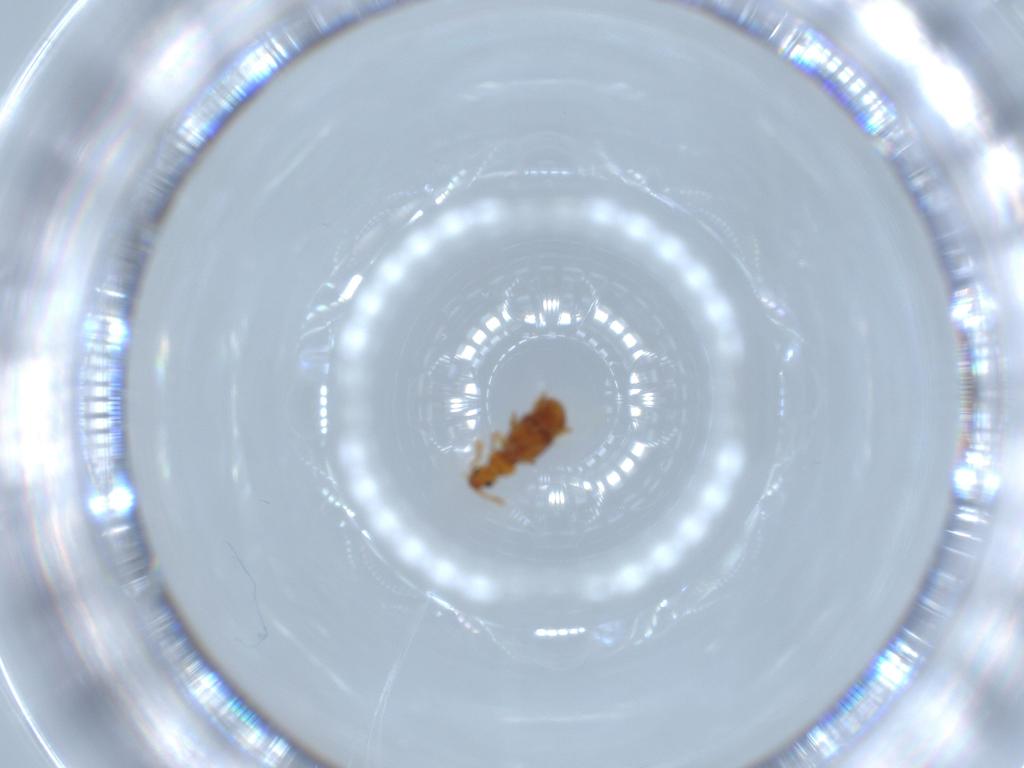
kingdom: Animalia
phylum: Arthropoda
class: Insecta
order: Coleoptera
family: Staphylinidae
